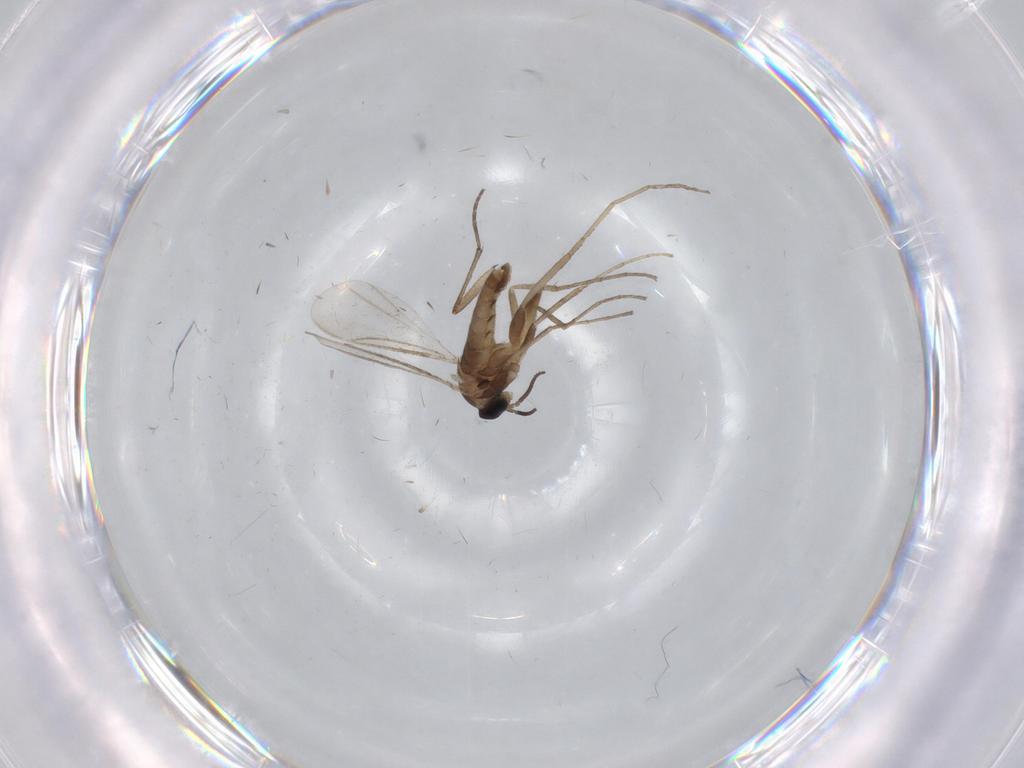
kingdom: Animalia
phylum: Arthropoda
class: Insecta
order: Diptera
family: Cecidomyiidae
